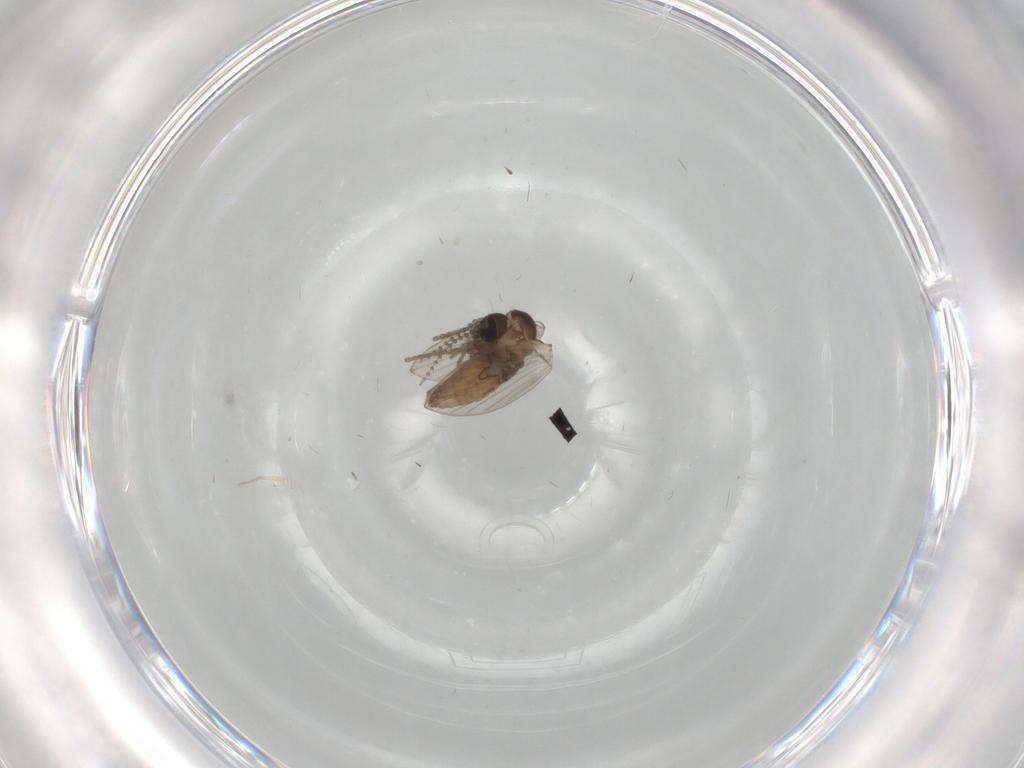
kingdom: Animalia
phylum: Arthropoda
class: Insecta
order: Diptera
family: Psychodidae
